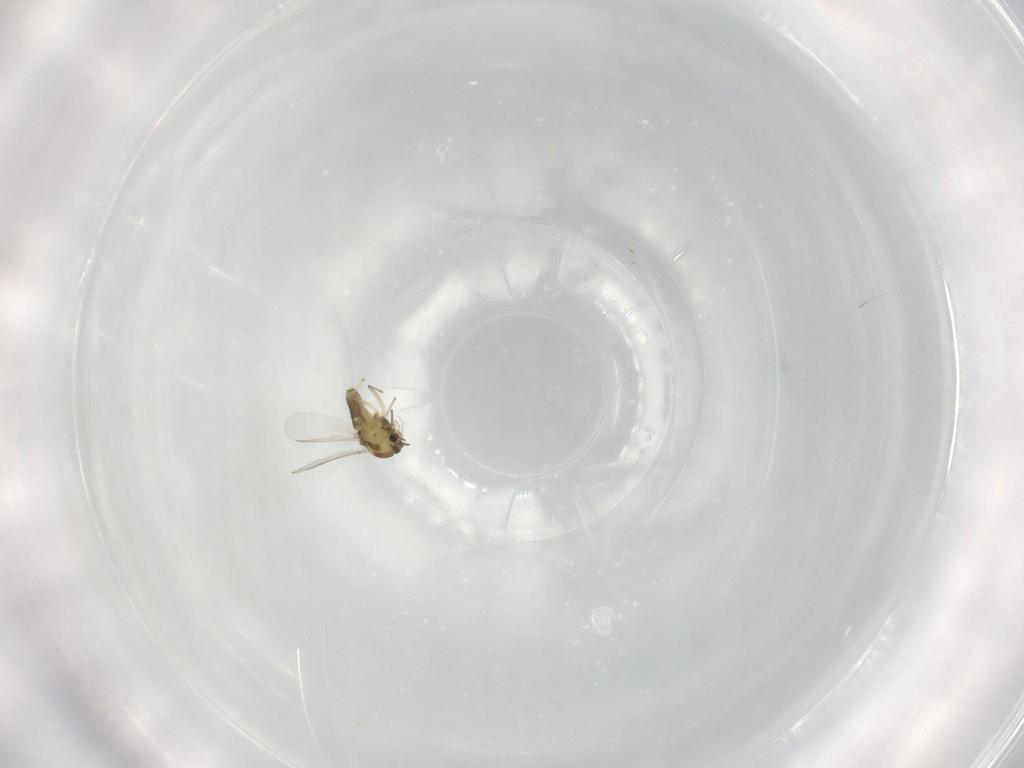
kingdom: Animalia
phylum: Arthropoda
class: Insecta
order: Diptera
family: Chironomidae
